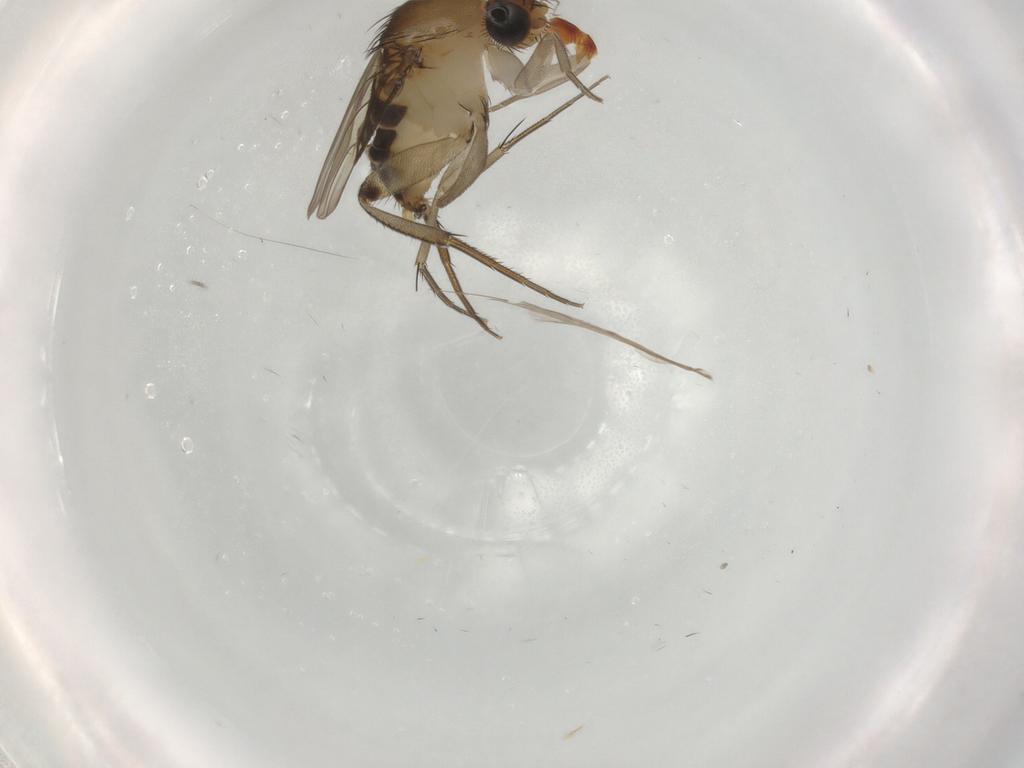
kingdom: Animalia
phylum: Arthropoda
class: Insecta
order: Diptera
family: Phoridae
